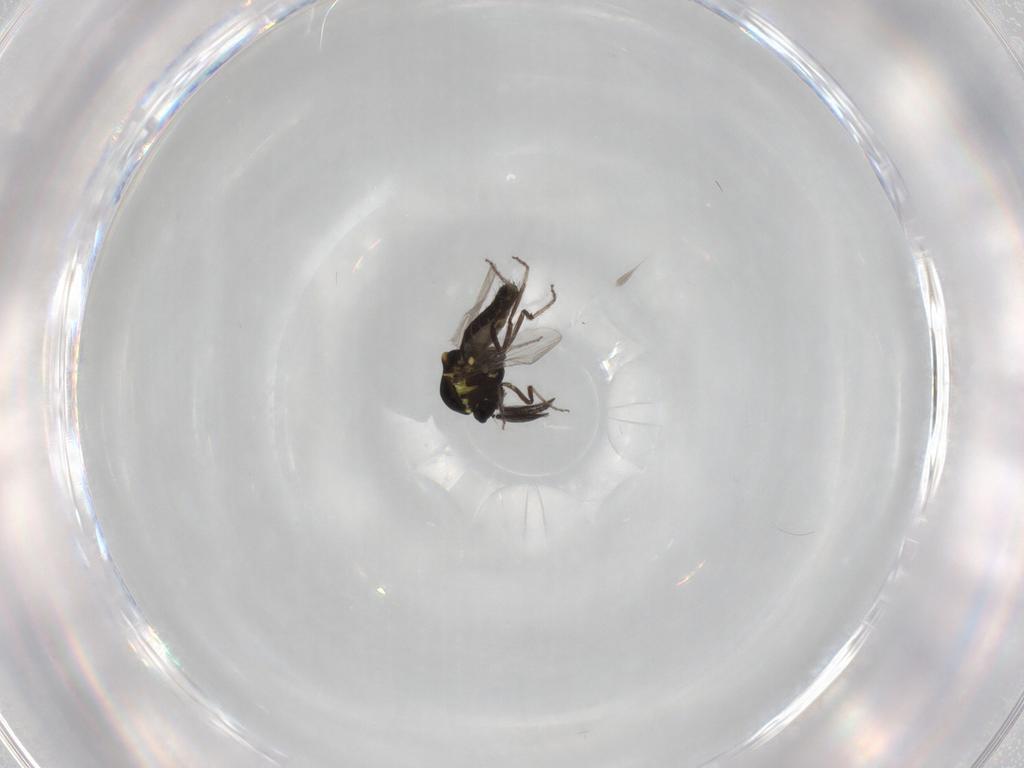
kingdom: Animalia
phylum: Arthropoda
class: Insecta
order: Diptera
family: Ceratopogonidae
